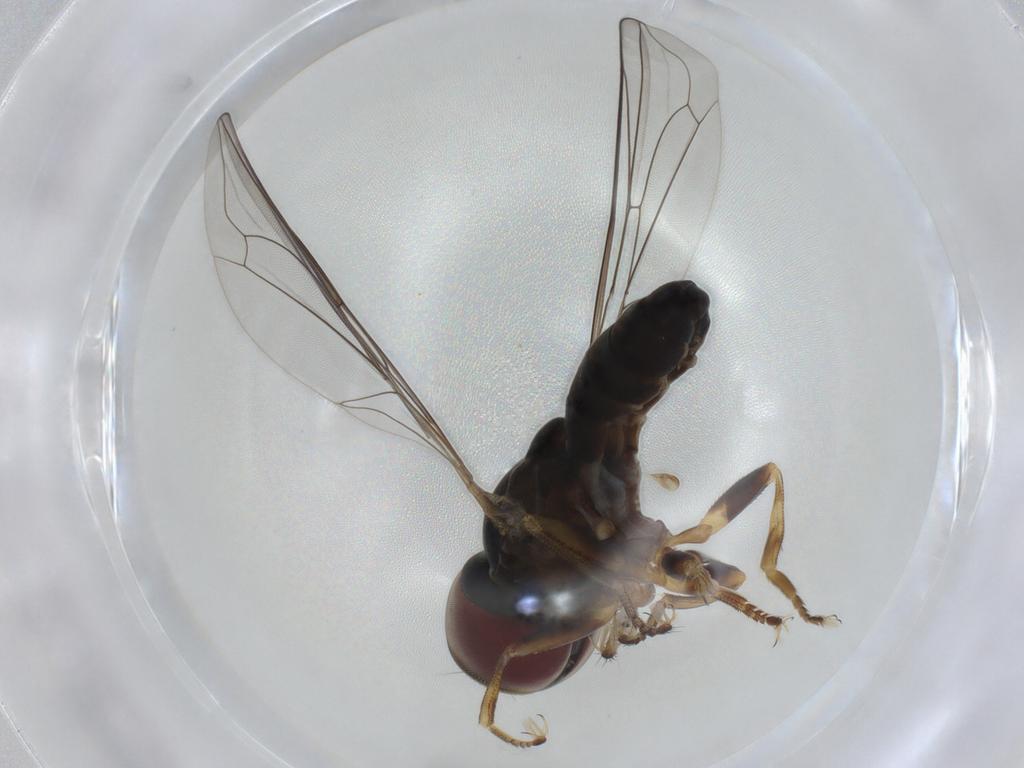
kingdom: Animalia
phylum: Arthropoda
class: Insecta
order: Diptera
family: Pipunculidae
